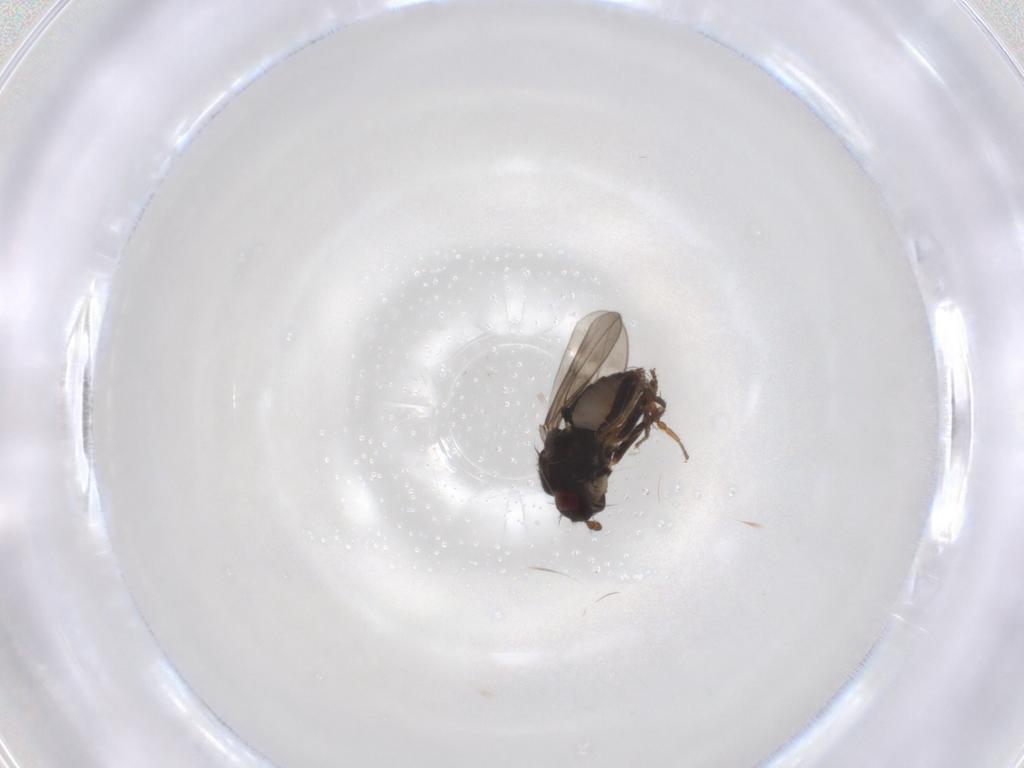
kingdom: Animalia
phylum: Arthropoda
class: Insecta
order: Diptera
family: Sphaeroceridae
